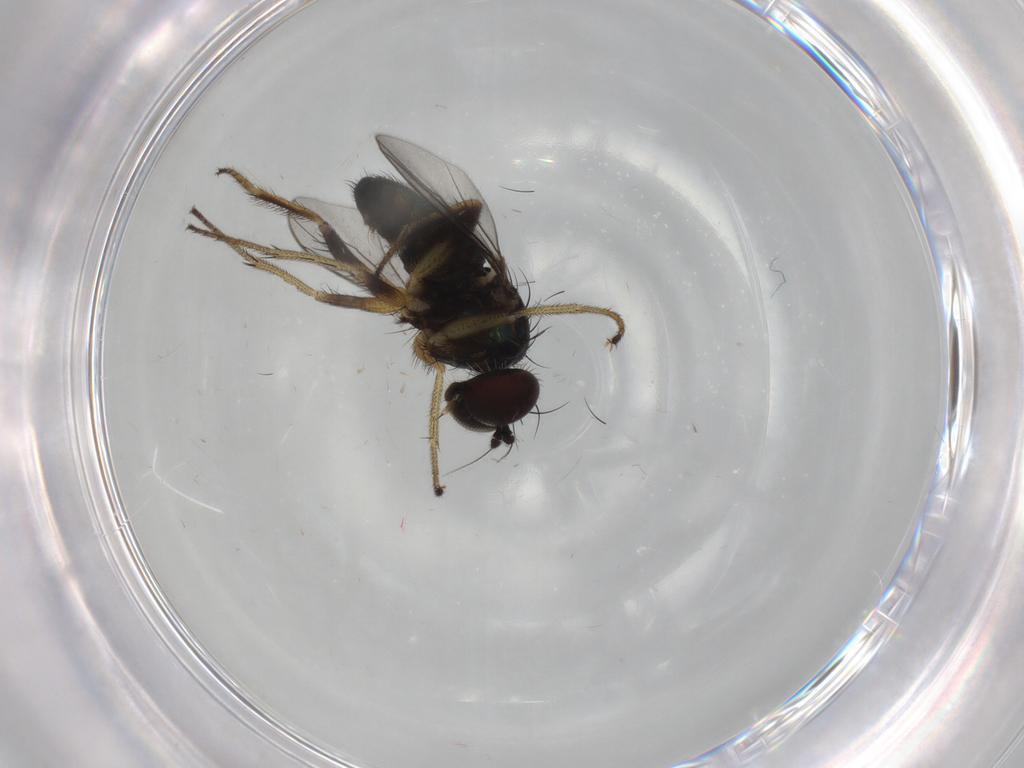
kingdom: Animalia
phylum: Arthropoda
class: Insecta
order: Diptera
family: Dolichopodidae
